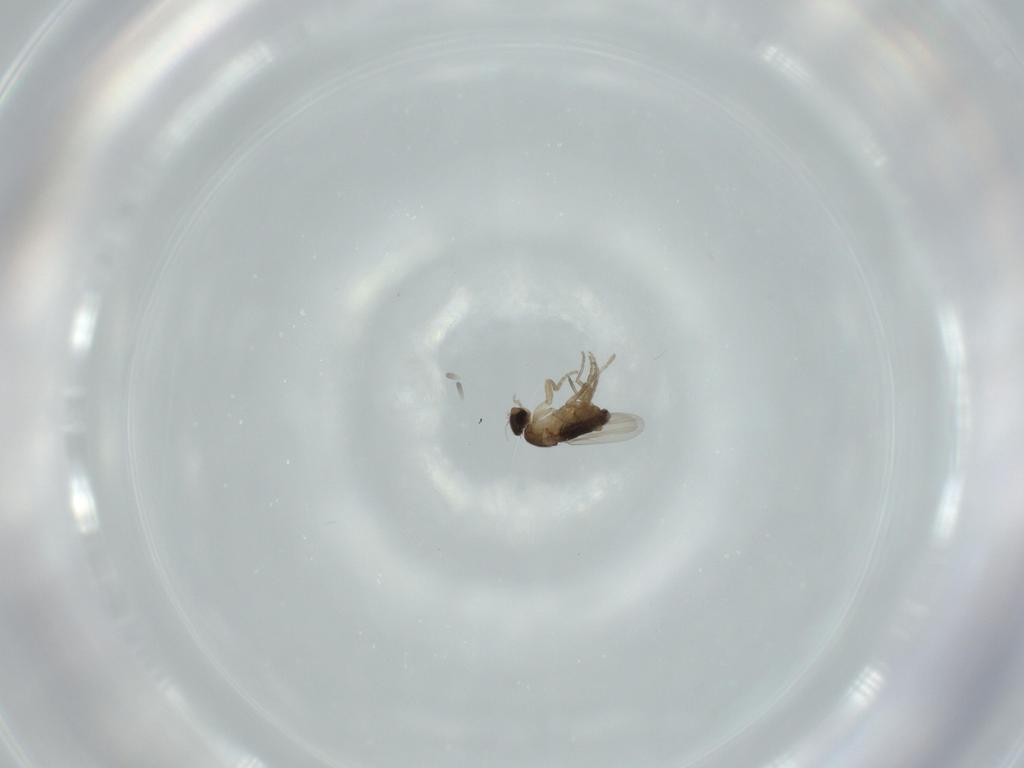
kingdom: Animalia
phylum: Arthropoda
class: Insecta
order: Diptera
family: Phoridae
